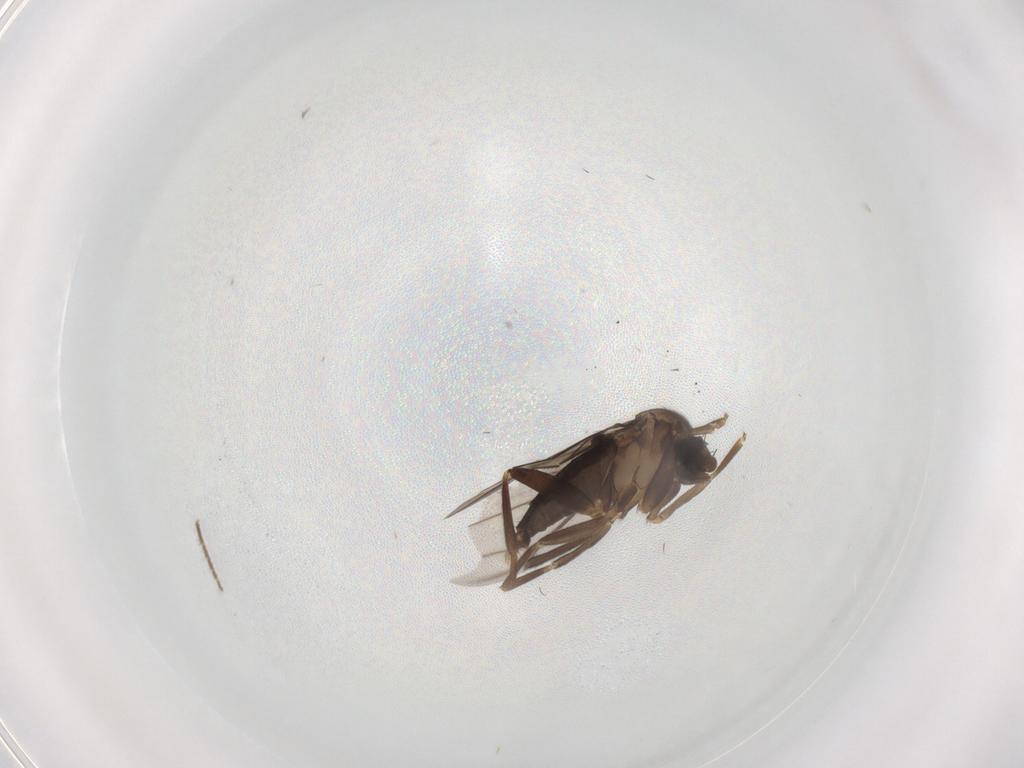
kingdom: Animalia
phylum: Arthropoda
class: Insecta
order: Diptera
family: Phoridae
